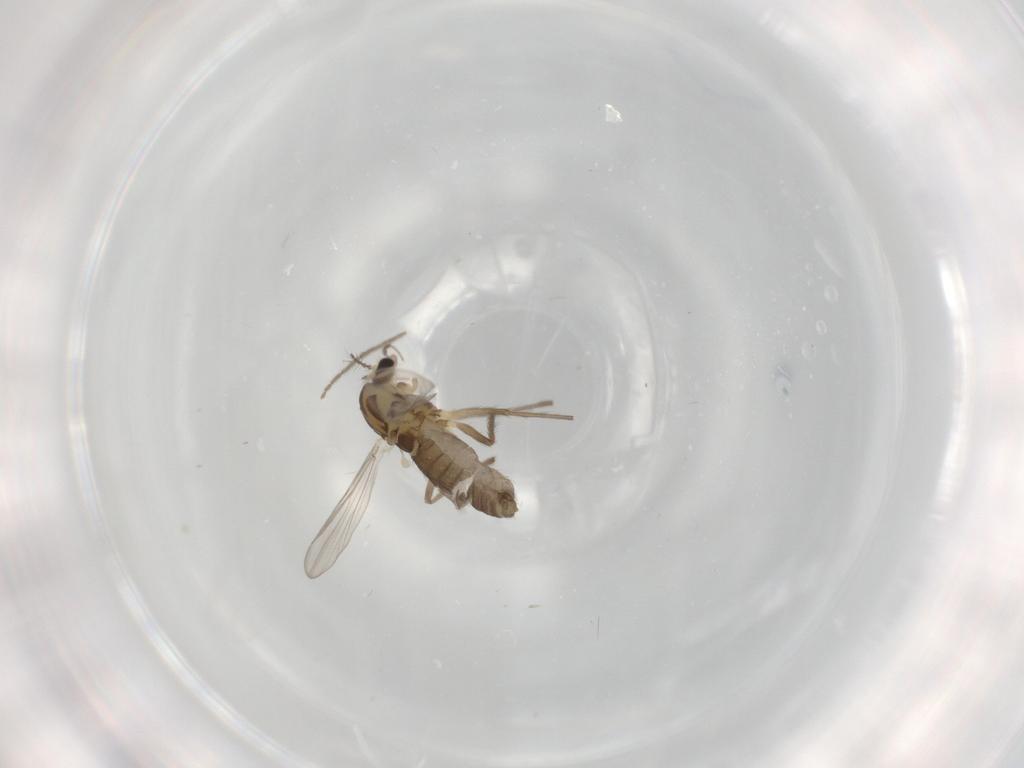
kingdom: Animalia
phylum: Arthropoda
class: Insecta
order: Diptera
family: Chironomidae
